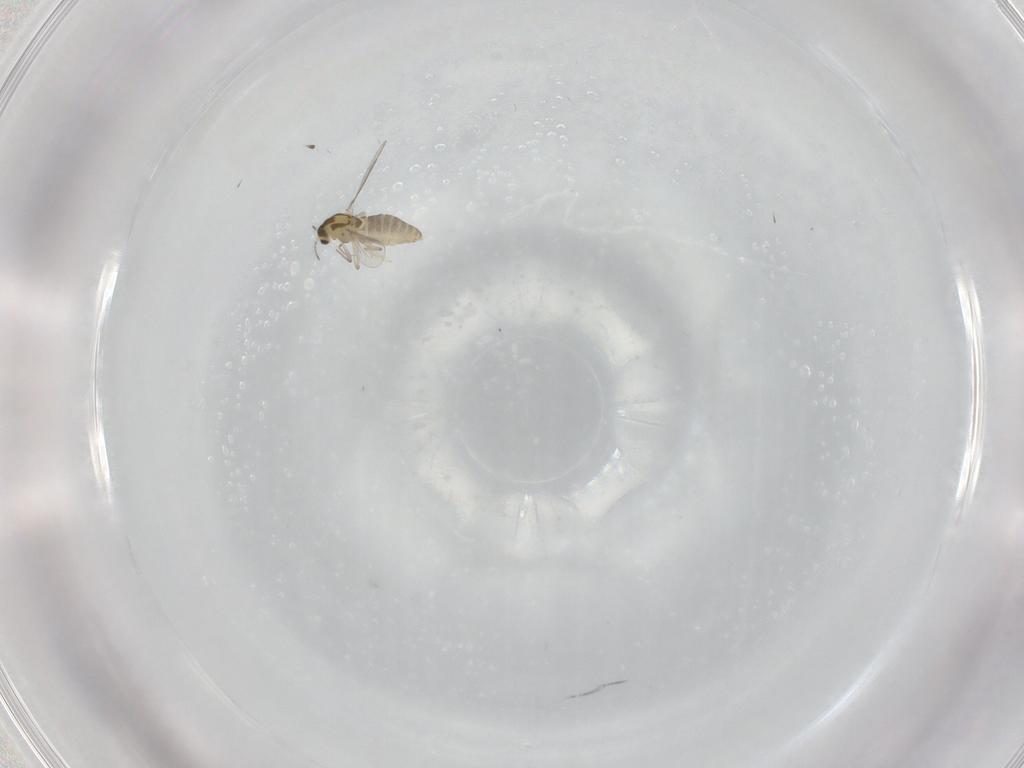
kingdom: Animalia
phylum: Arthropoda
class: Insecta
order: Diptera
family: Chironomidae
